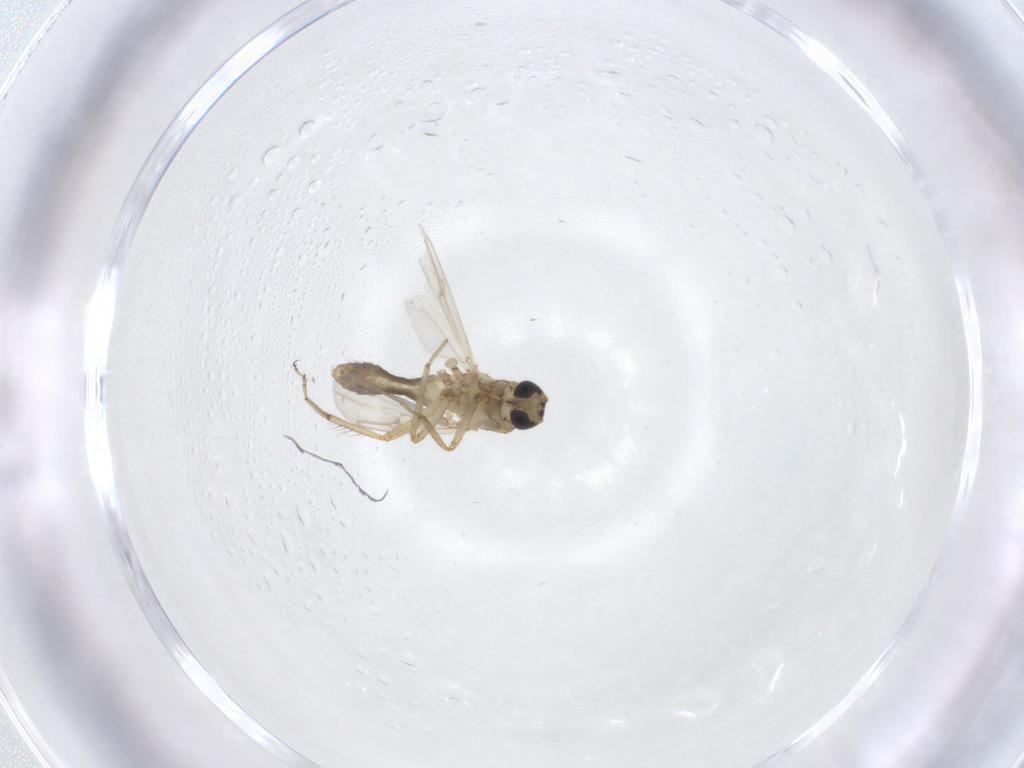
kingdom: Animalia
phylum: Arthropoda
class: Insecta
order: Diptera
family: Ceratopogonidae
